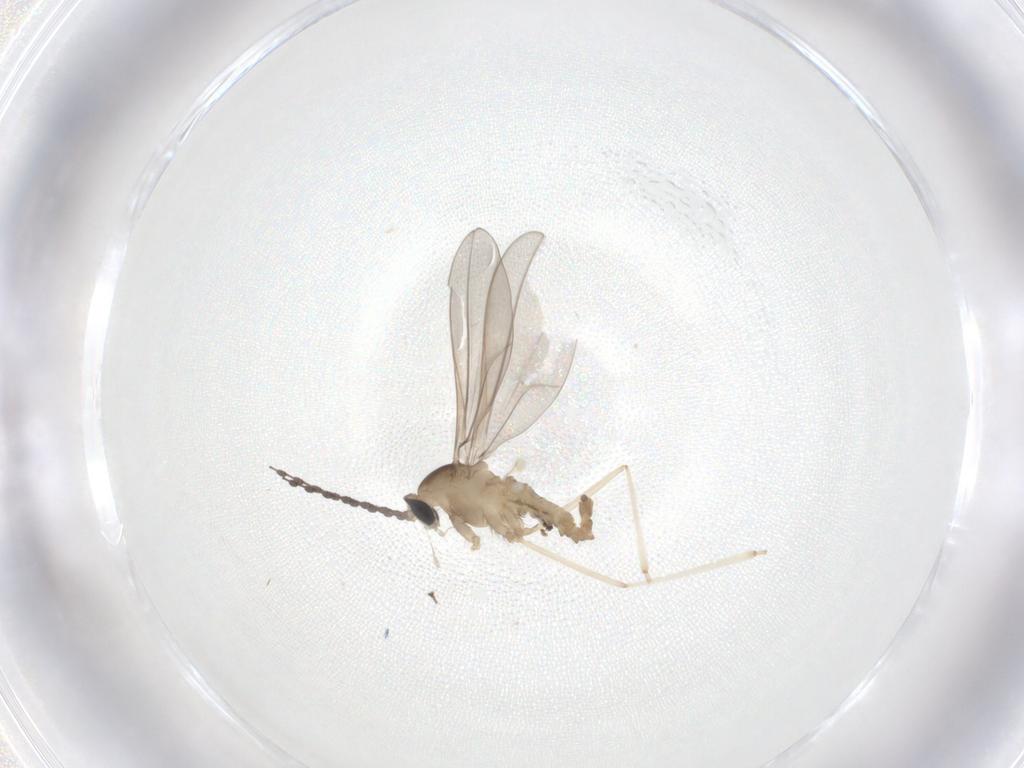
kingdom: Animalia
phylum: Arthropoda
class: Insecta
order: Diptera
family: Cecidomyiidae
